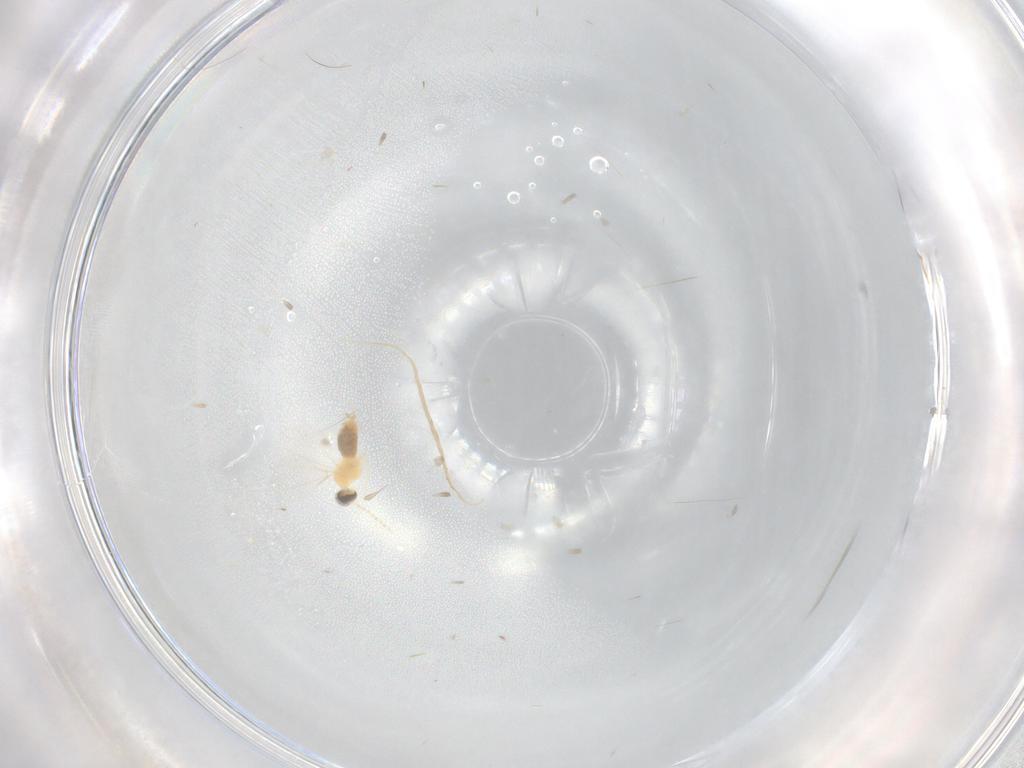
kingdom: Animalia
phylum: Arthropoda
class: Insecta
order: Diptera
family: Cecidomyiidae
